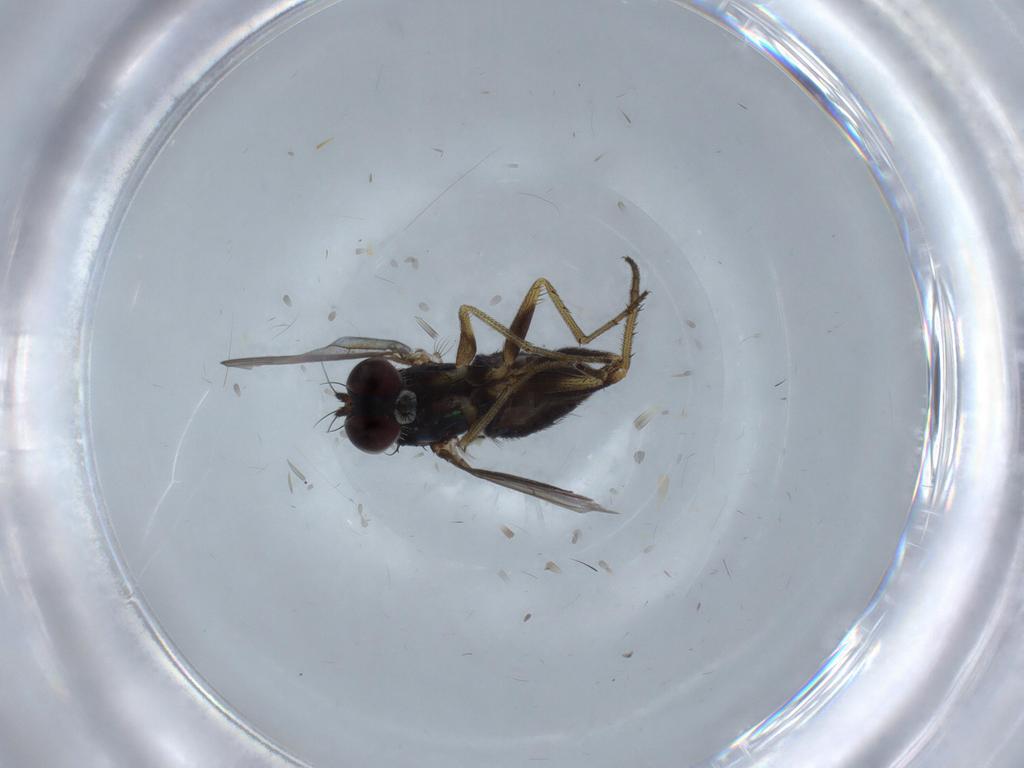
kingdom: Animalia
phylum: Arthropoda
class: Insecta
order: Diptera
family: Ceratopogonidae
